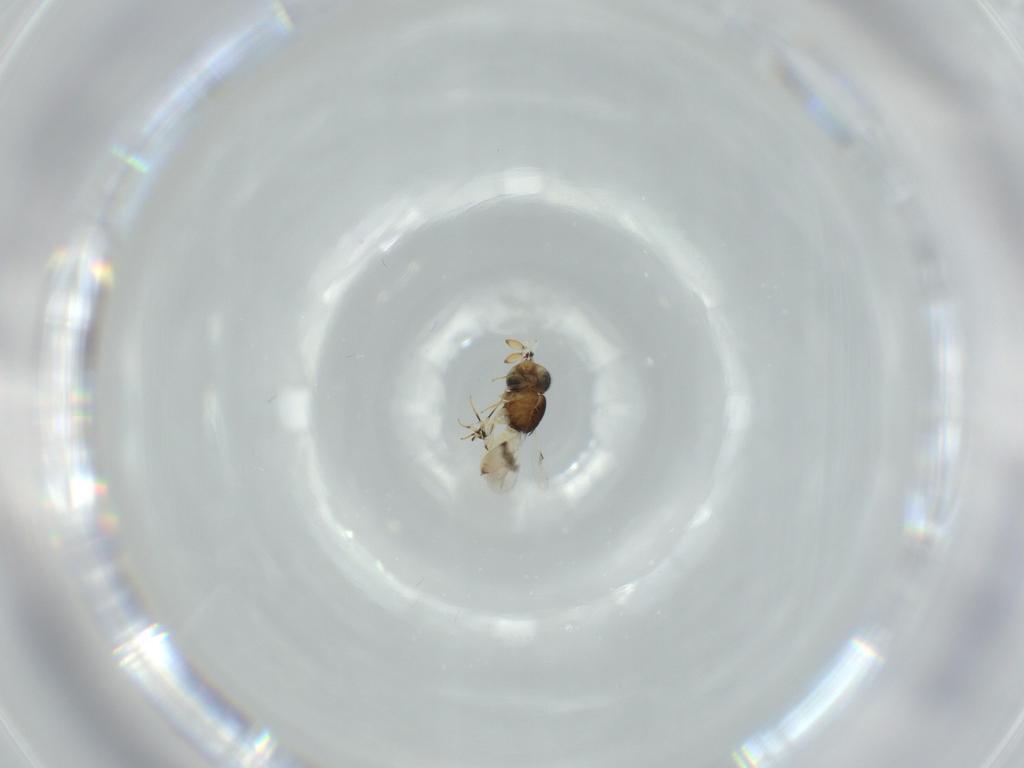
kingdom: Animalia
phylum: Arthropoda
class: Insecta
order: Hymenoptera
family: Scelionidae
